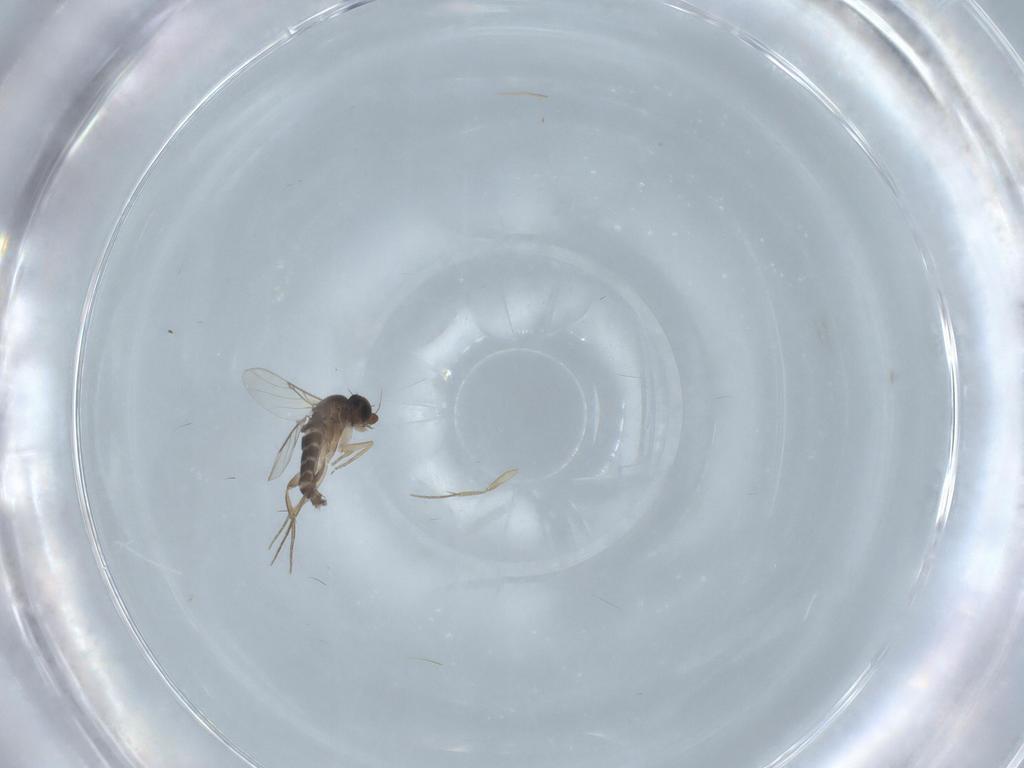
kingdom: Animalia
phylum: Arthropoda
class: Insecta
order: Diptera
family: Phoridae
